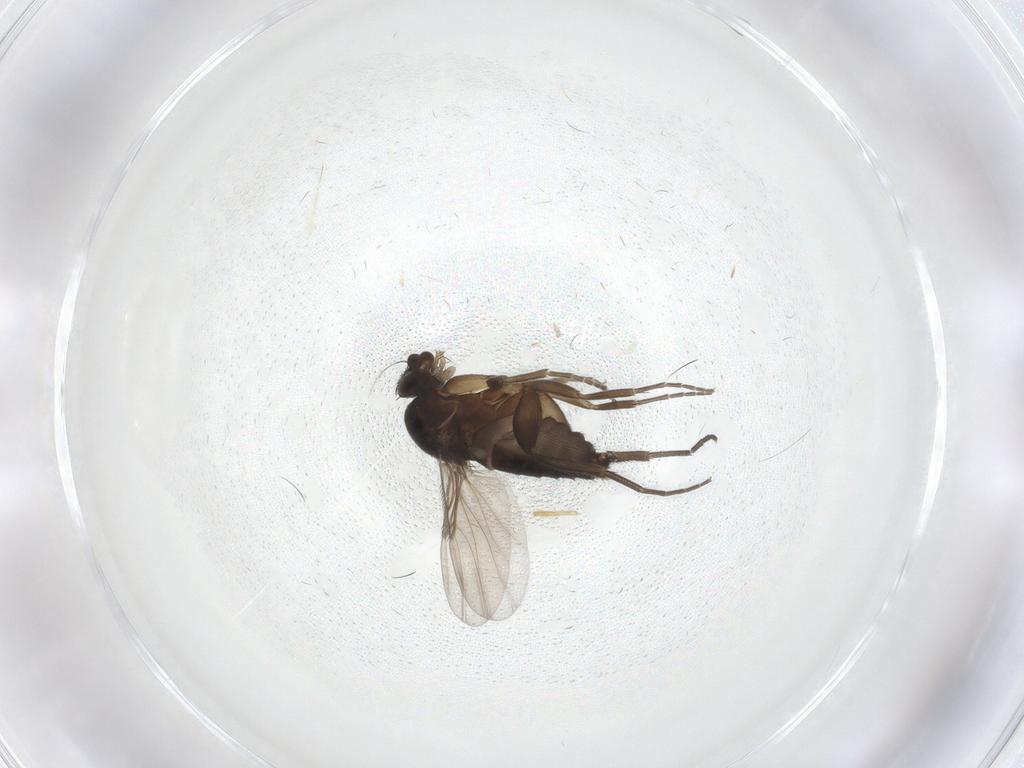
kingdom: Animalia
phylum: Arthropoda
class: Insecta
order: Diptera
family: Phoridae
